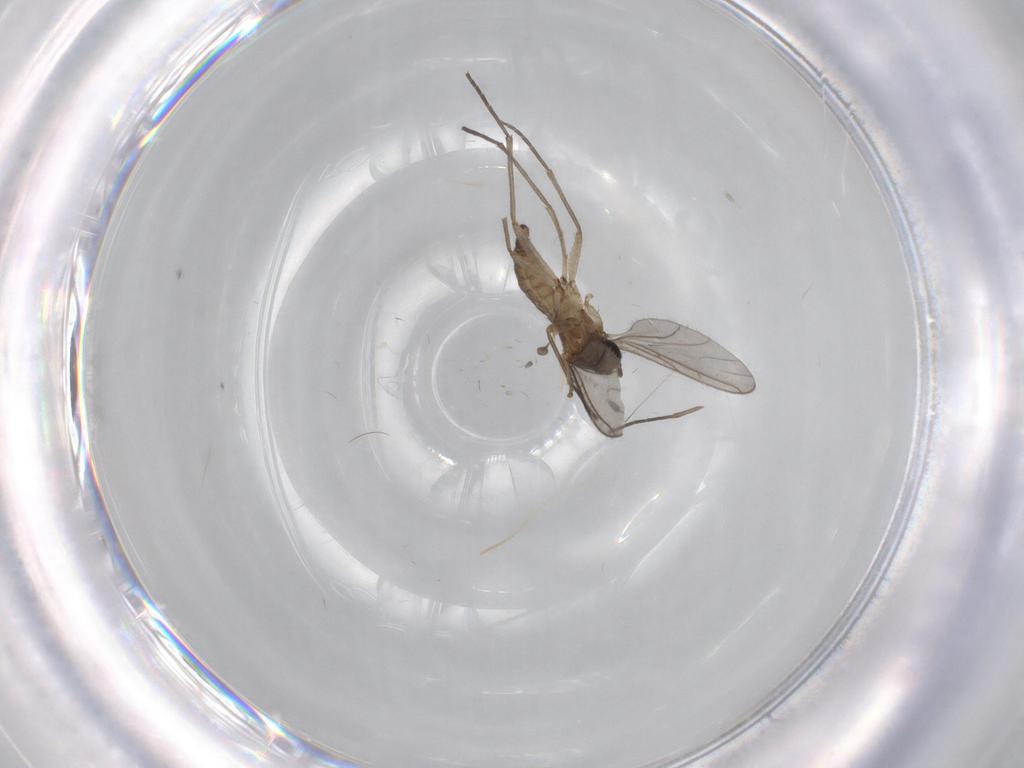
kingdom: Animalia
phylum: Arthropoda
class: Insecta
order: Diptera
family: Sciaridae
